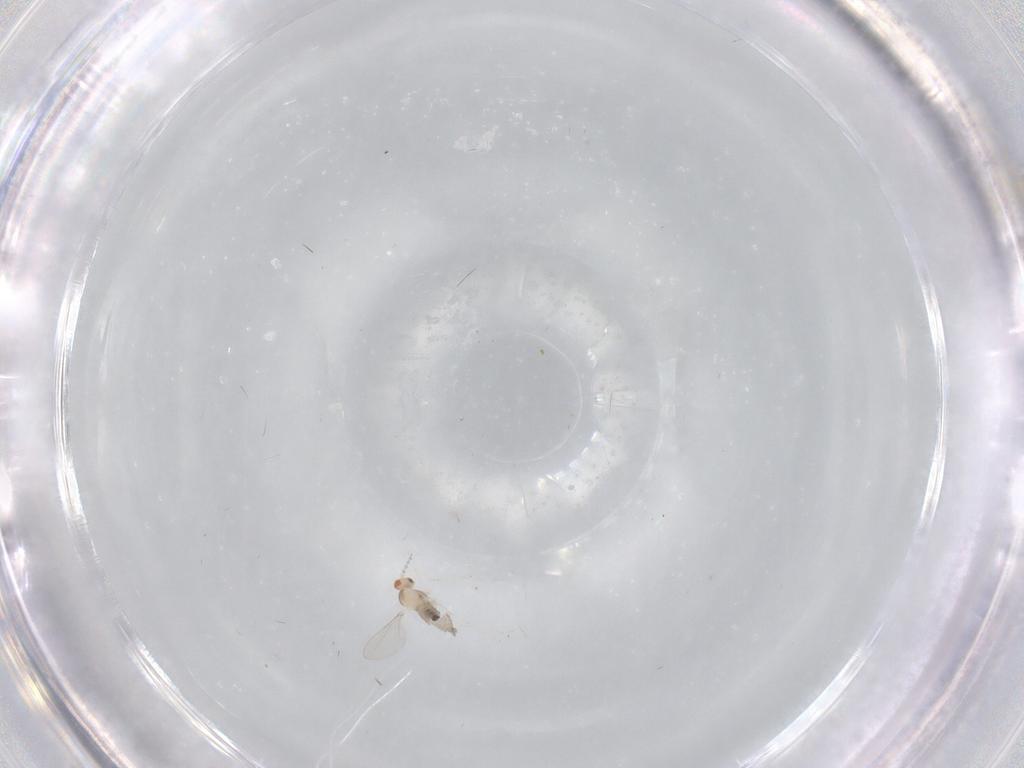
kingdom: Animalia
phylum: Arthropoda
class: Insecta
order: Diptera
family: Cecidomyiidae
